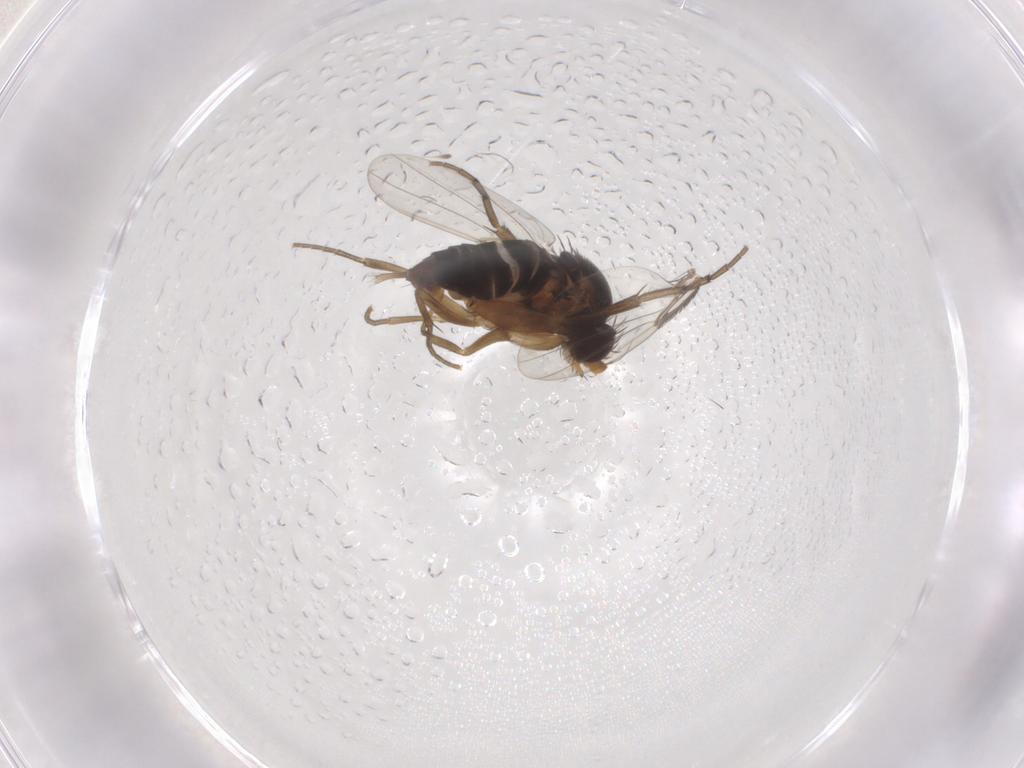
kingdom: Animalia
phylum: Arthropoda
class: Insecta
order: Diptera
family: Phoridae
